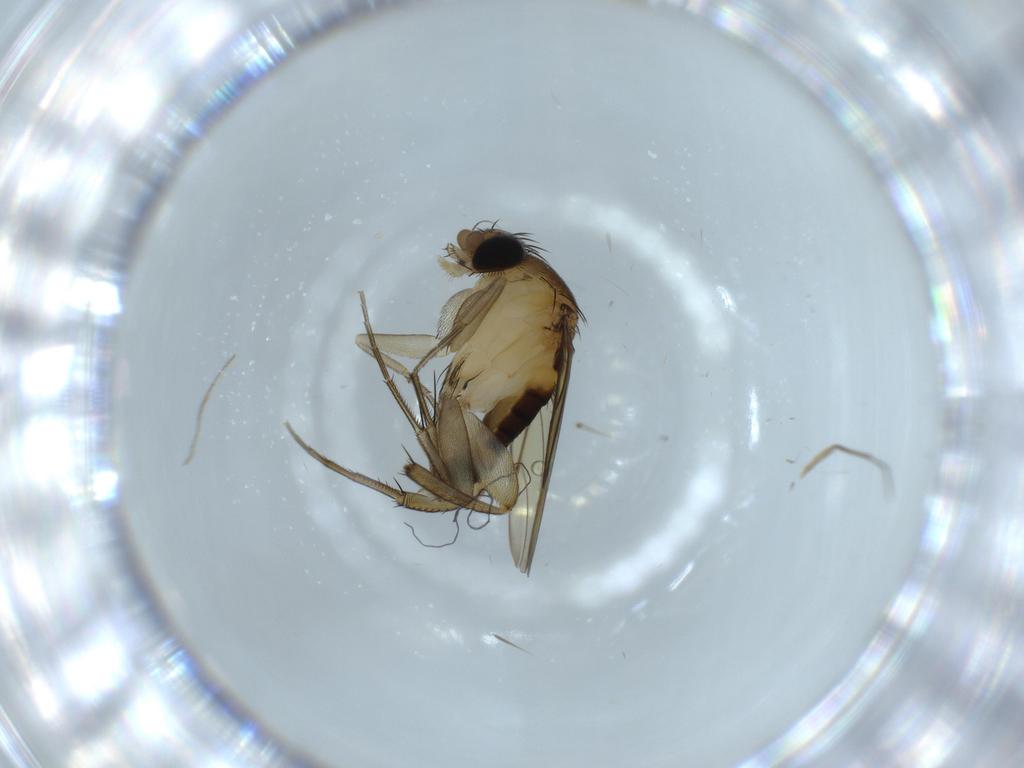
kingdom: Animalia
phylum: Arthropoda
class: Insecta
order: Diptera
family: Chironomidae
